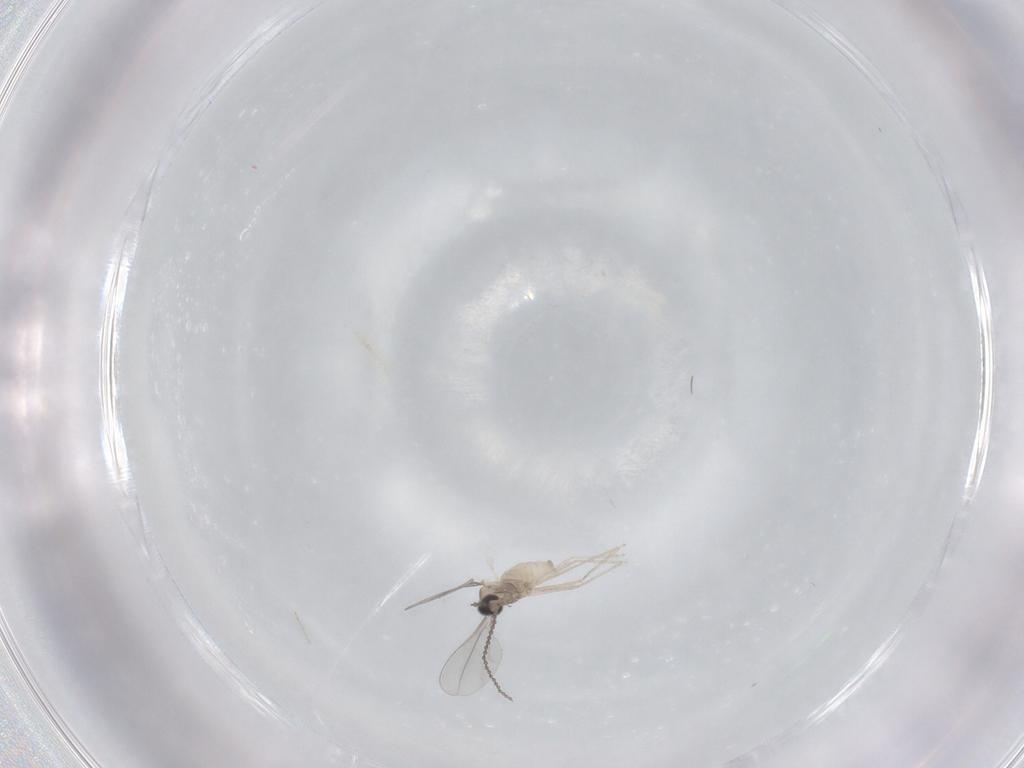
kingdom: Animalia
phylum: Arthropoda
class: Insecta
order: Diptera
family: Cecidomyiidae
